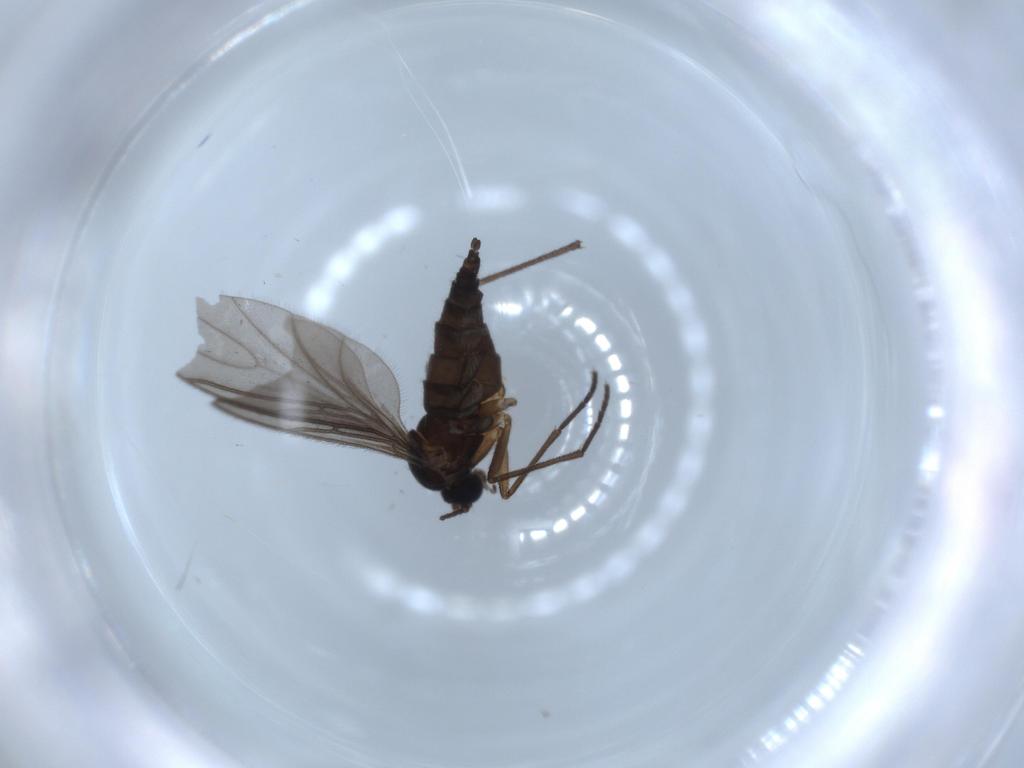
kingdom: Animalia
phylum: Arthropoda
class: Insecta
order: Diptera
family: Sciaridae
